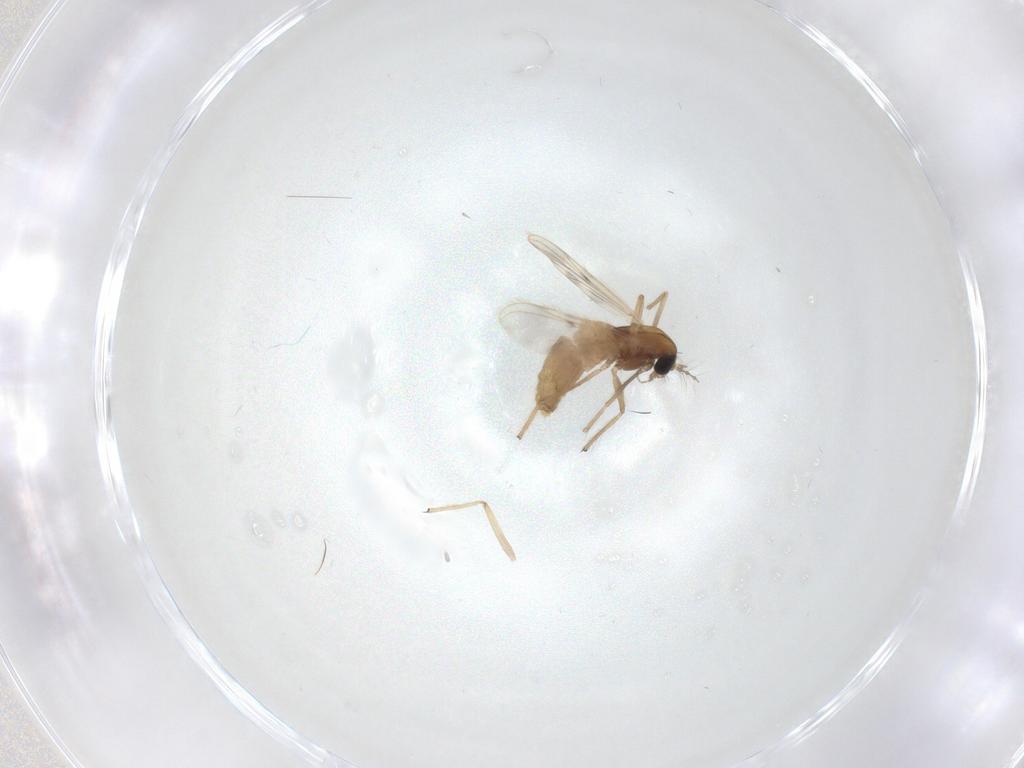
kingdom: Animalia
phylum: Arthropoda
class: Insecta
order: Diptera
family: Chironomidae
